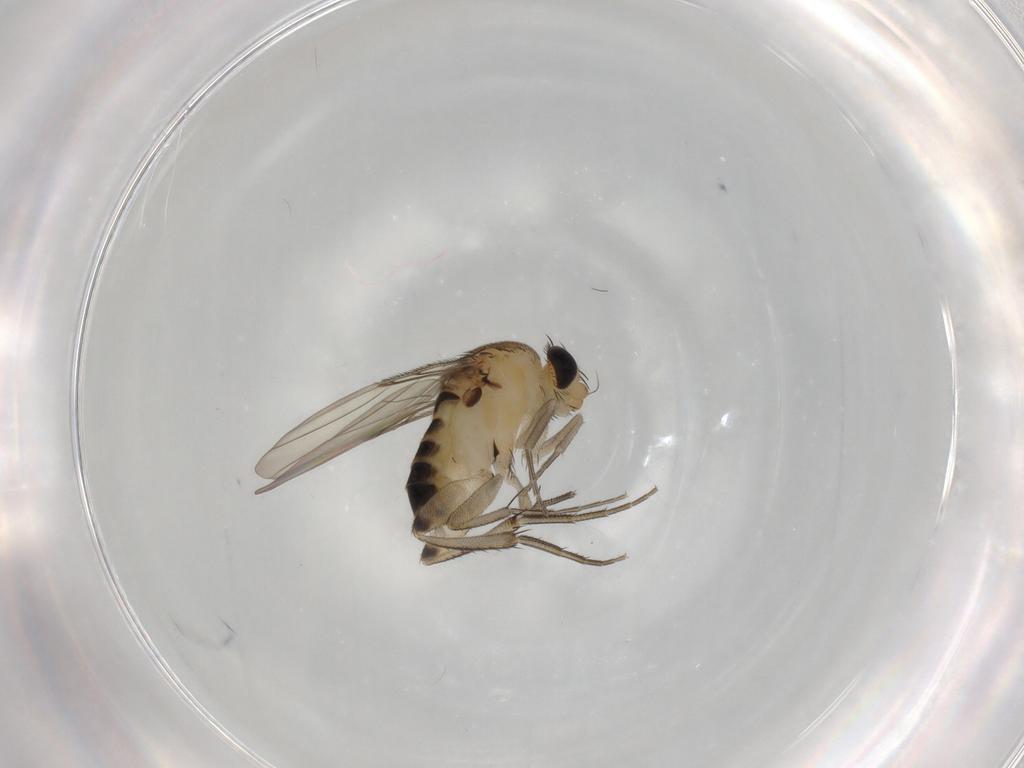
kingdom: Animalia
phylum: Arthropoda
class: Insecta
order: Diptera
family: Phoridae
